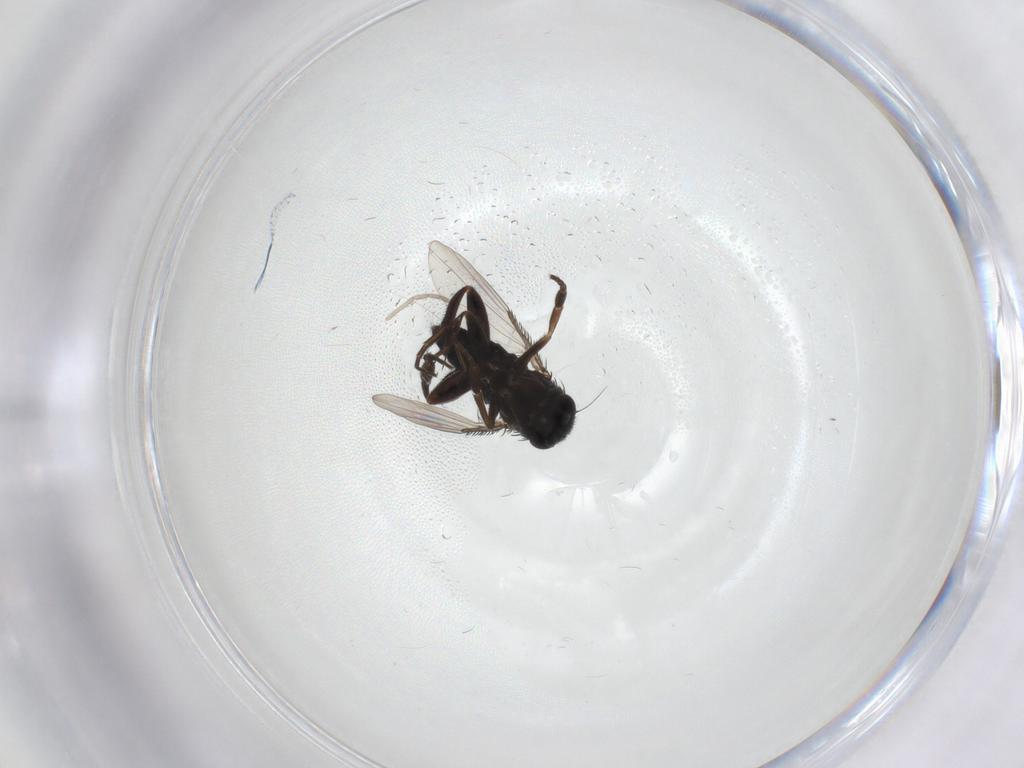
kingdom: Animalia
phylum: Arthropoda
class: Insecta
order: Diptera
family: Phoridae
